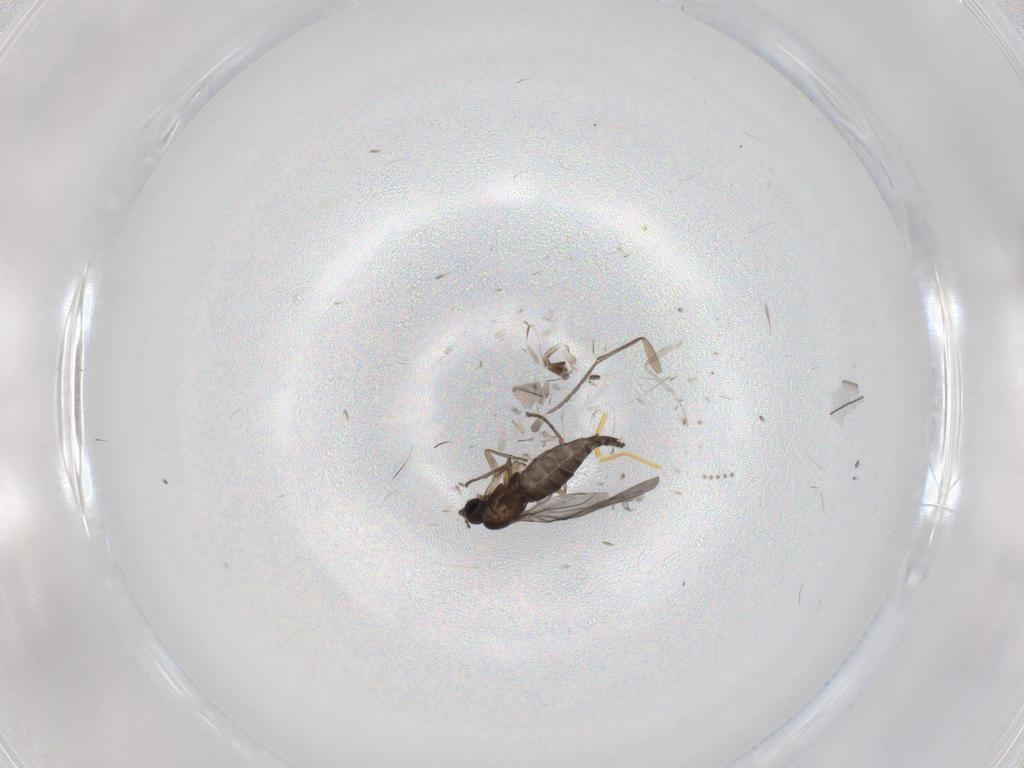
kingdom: Animalia
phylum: Arthropoda
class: Insecta
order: Diptera
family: Sciaridae
